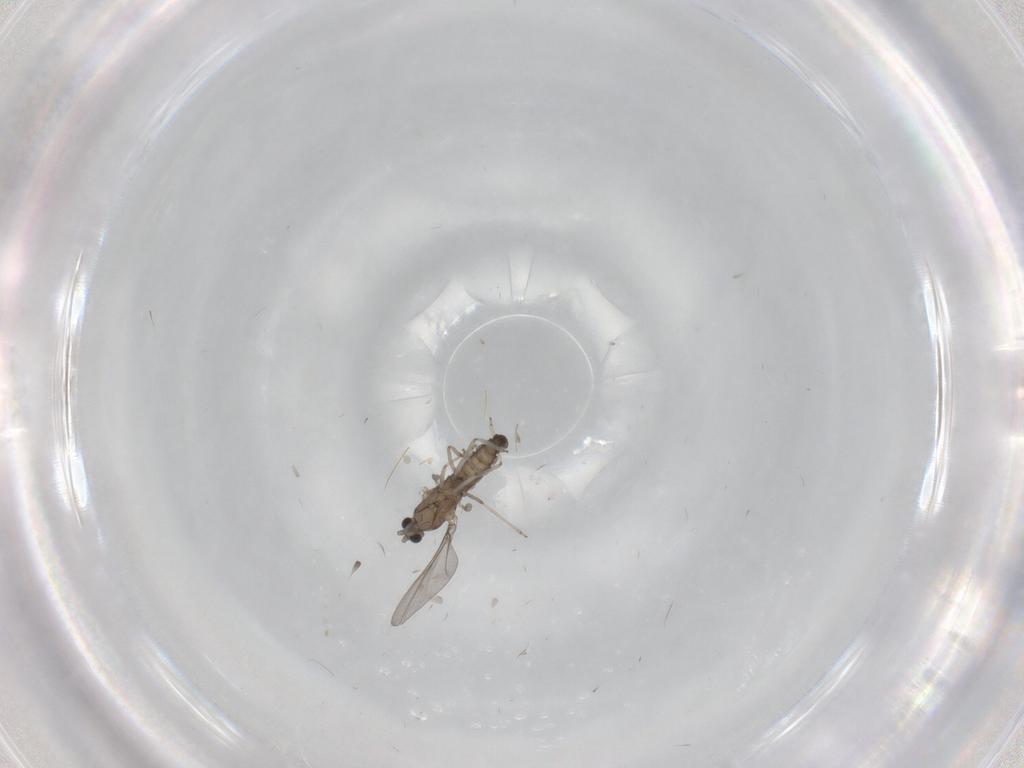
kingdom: Animalia
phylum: Arthropoda
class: Insecta
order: Diptera
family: Cecidomyiidae
